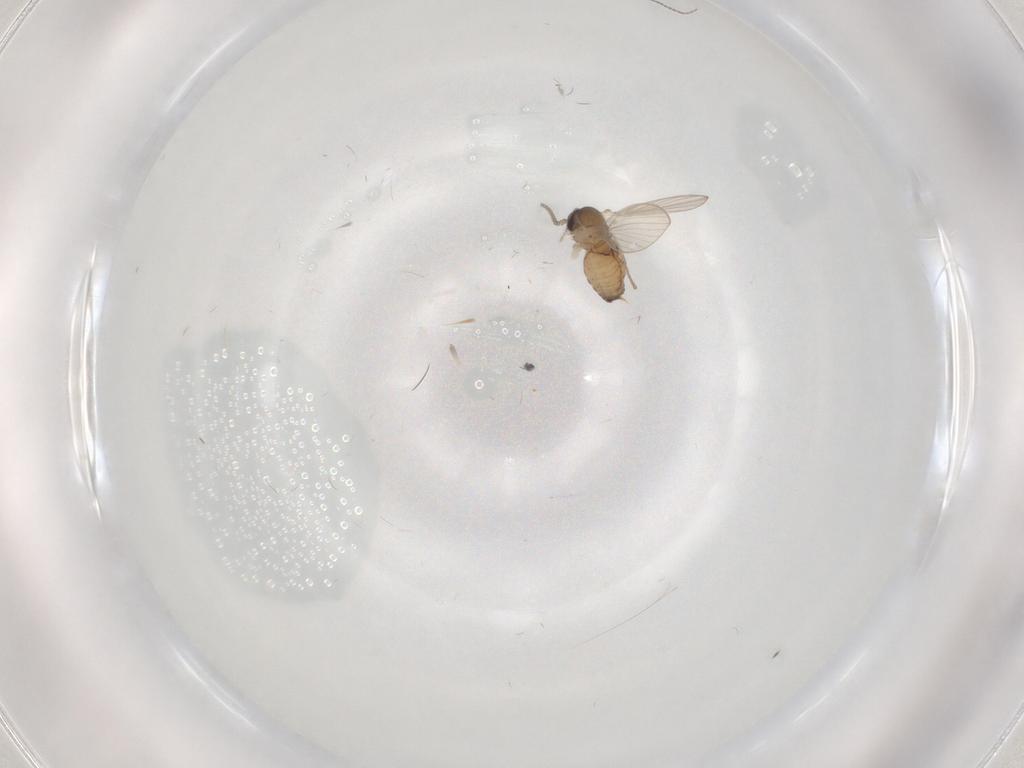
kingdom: Animalia
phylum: Arthropoda
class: Insecta
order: Diptera
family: Psychodidae
